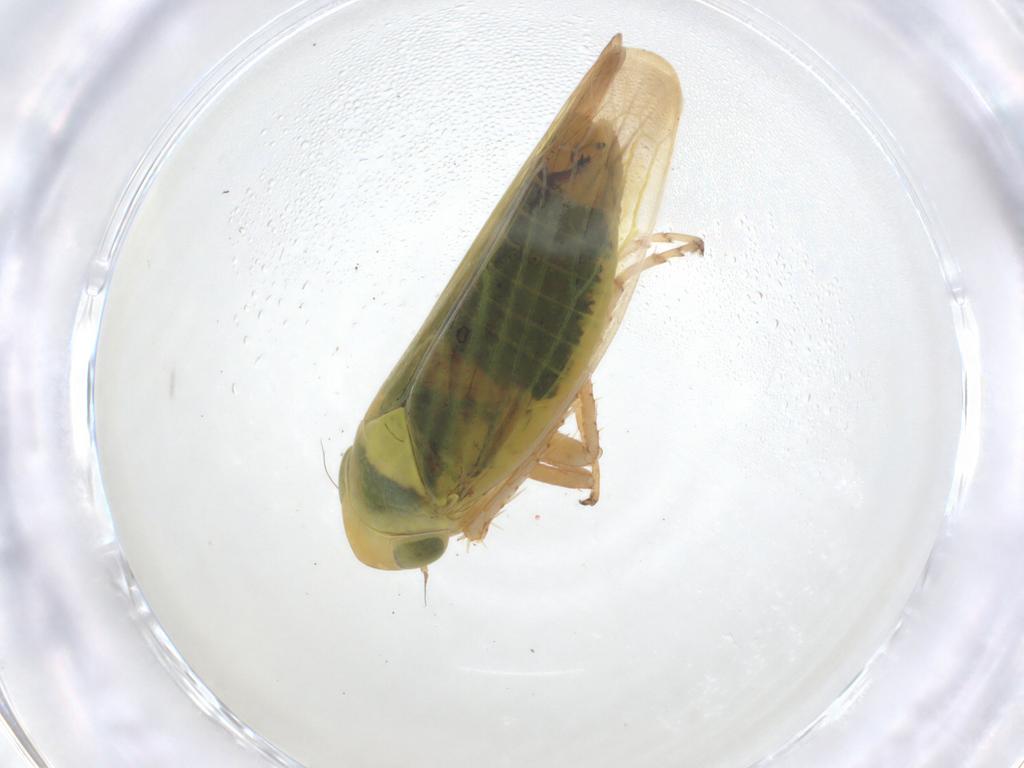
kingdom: Animalia
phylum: Arthropoda
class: Insecta
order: Hemiptera
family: Cicadellidae
